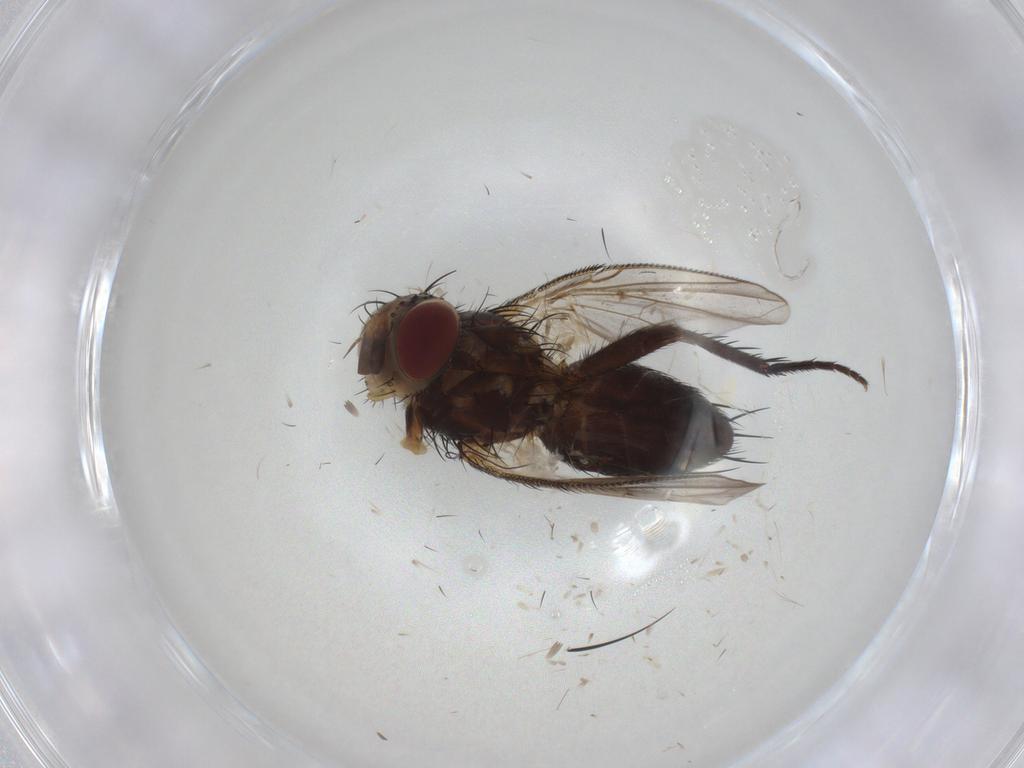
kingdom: Animalia
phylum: Arthropoda
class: Insecta
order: Diptera
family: Tachinidae
